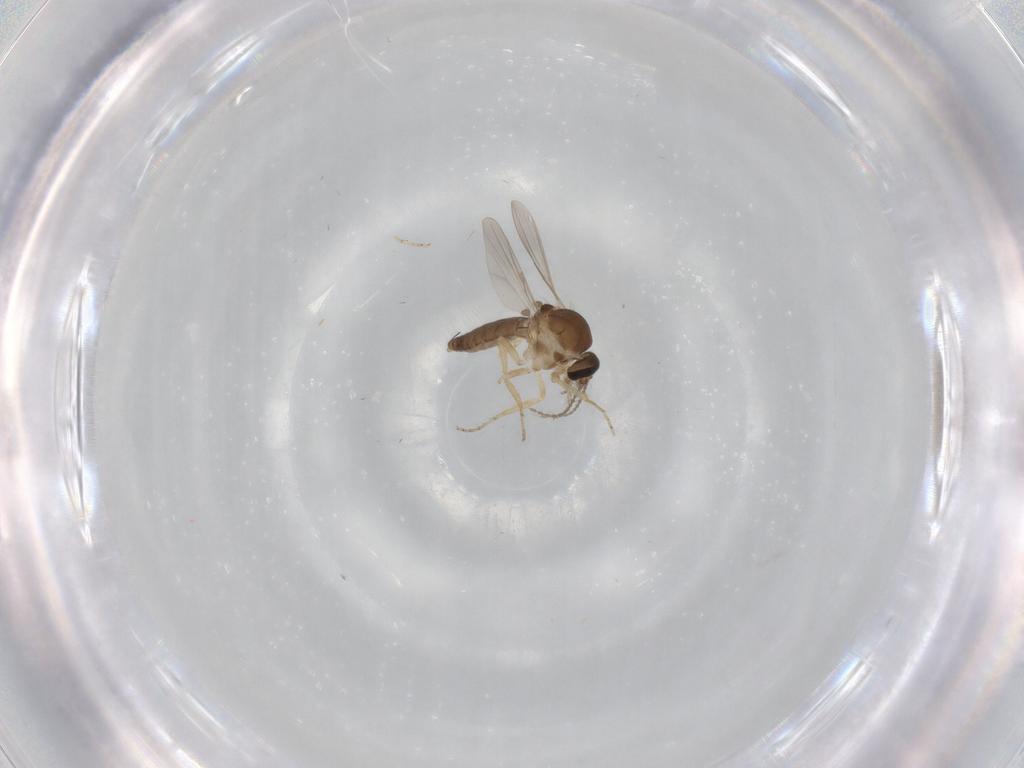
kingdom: Animalia
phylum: Arthropoda
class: Insecta
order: Diptera
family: Ceratopogonidae
